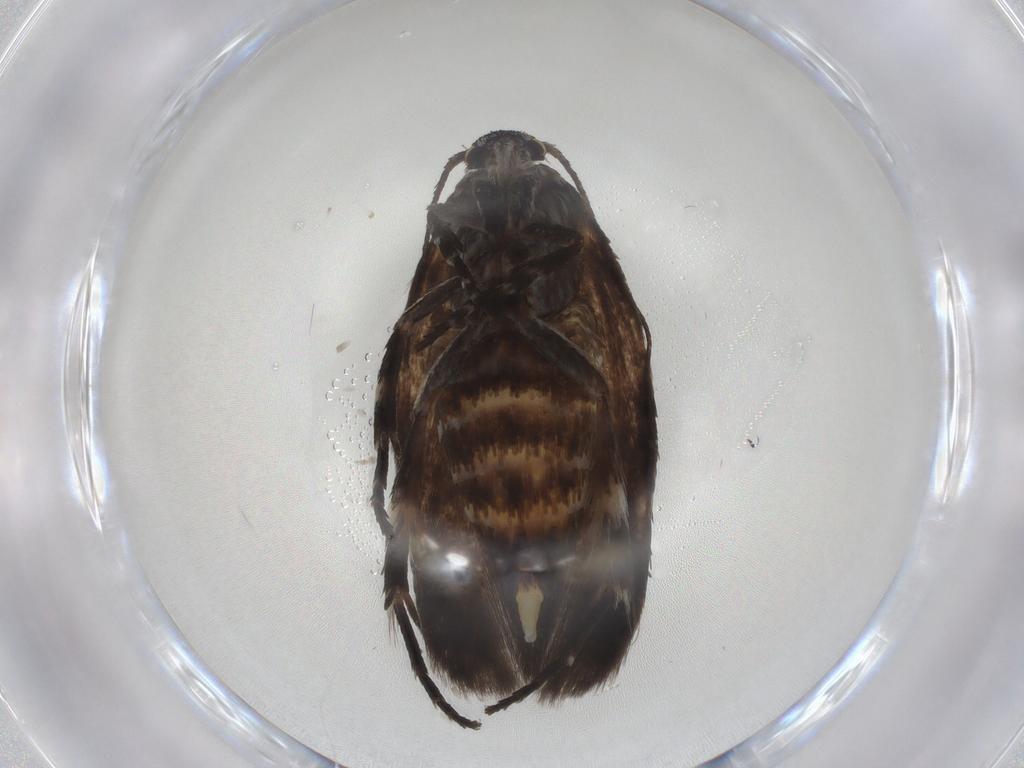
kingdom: Animalia
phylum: Arthropoda
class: Insecta
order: Lepidoptera
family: Scythrididae
